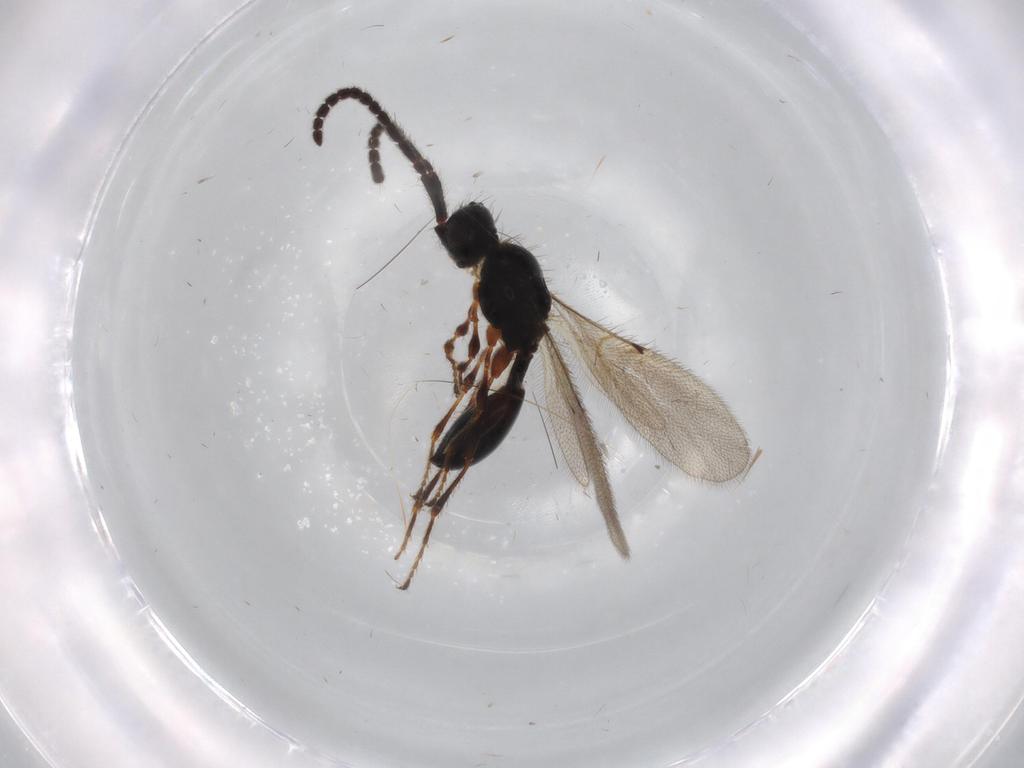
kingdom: Animalia
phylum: Arthropoda
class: Insecta
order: Hymenoptera
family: Diapriidae
